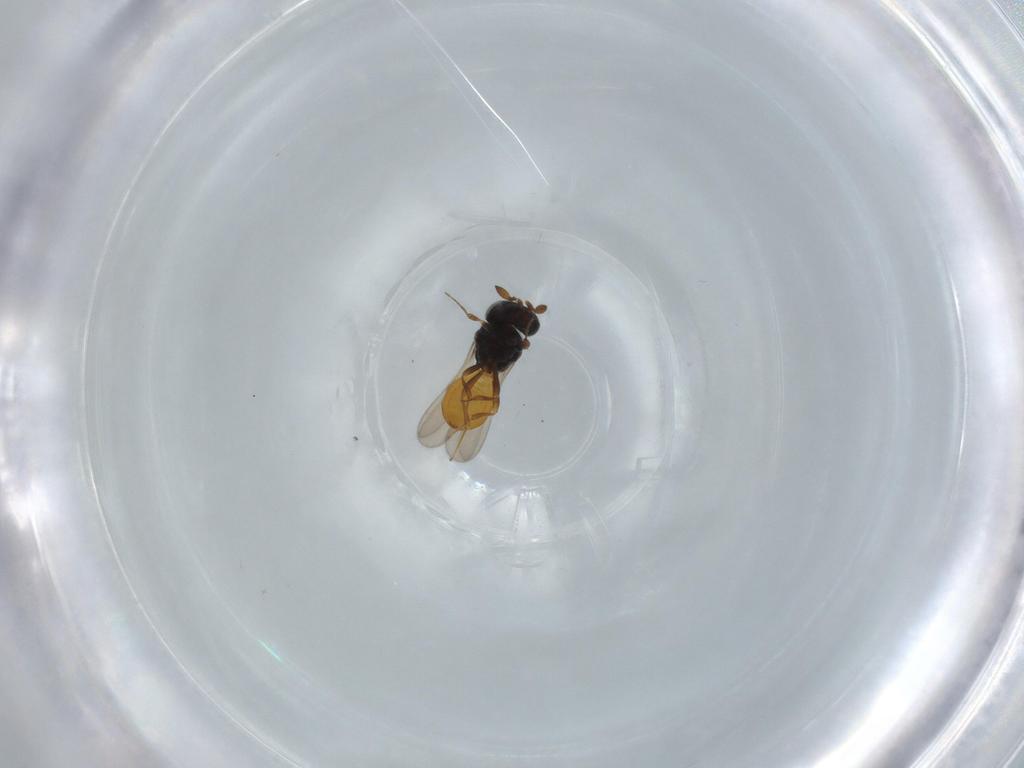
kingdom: Animalia
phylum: Arthropoda
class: Insecta
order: Hymenoptera
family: Scelionidae
